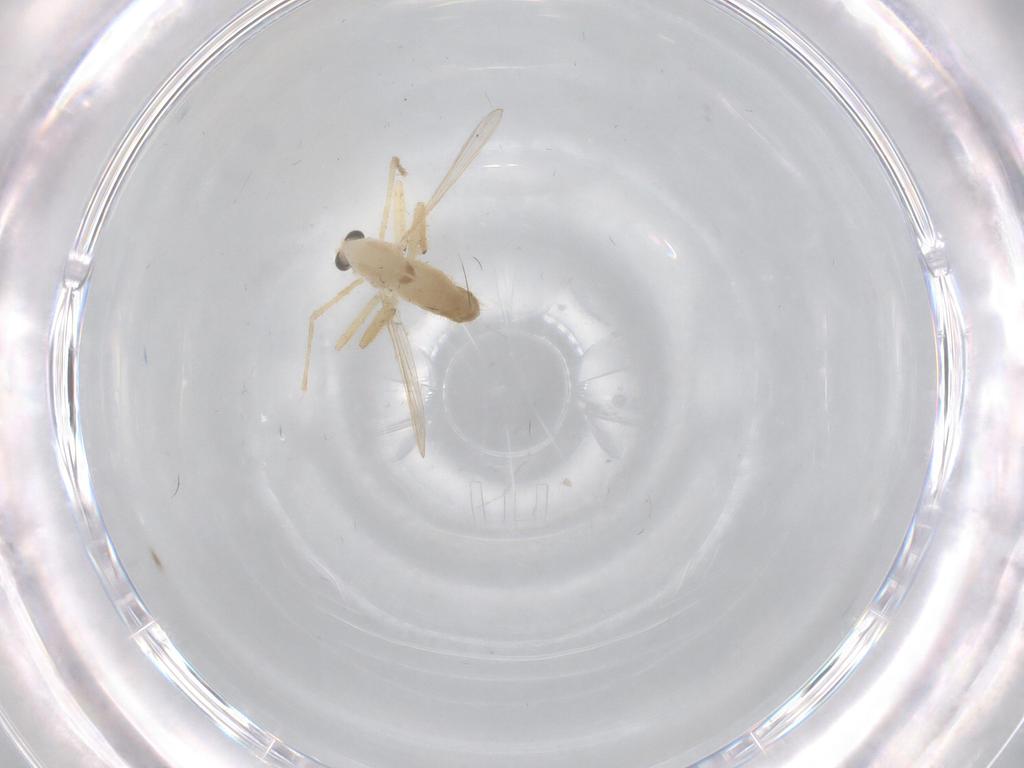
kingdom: Animalia
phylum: Arthropoda
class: Insecta
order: Diptera
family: Chironomidae
